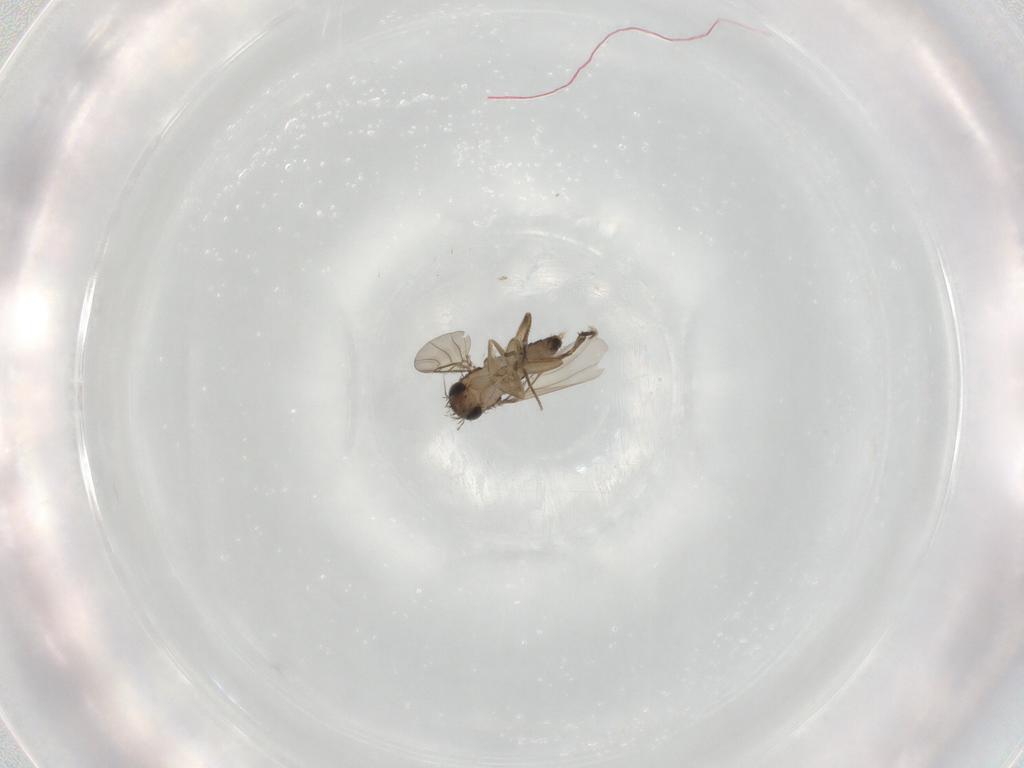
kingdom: Animalia
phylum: Arthropoda
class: Insecta
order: Diptera
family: Phoridae
